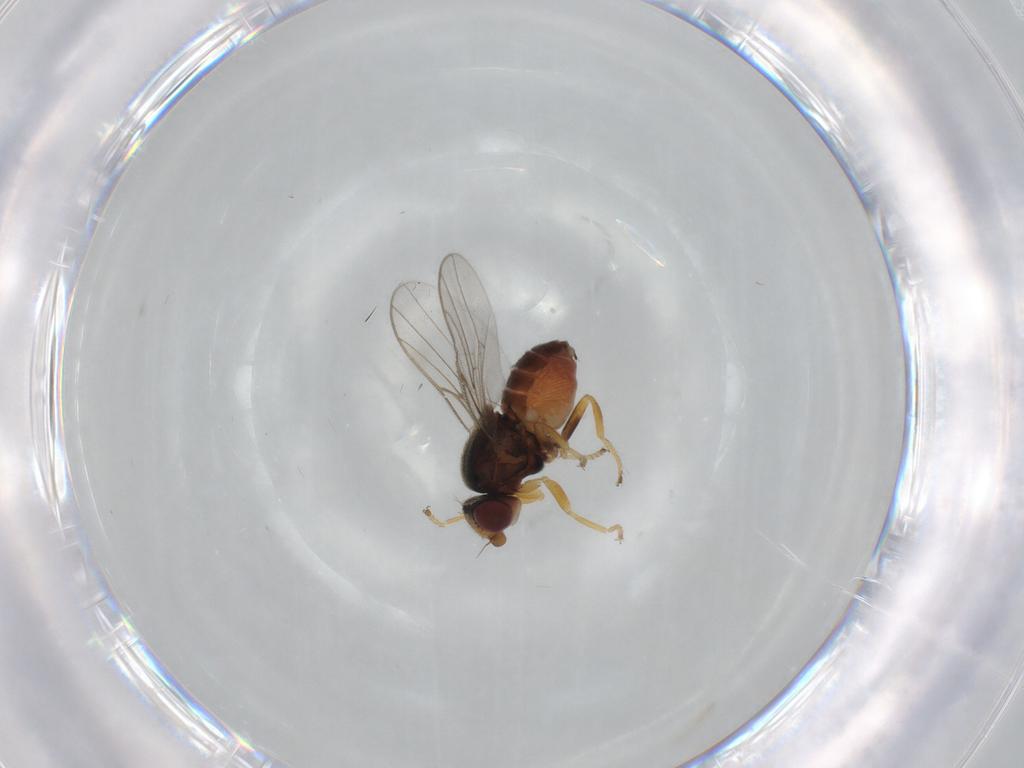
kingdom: Animalia
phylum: Arthropoda
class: Insecta
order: Diptera
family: Chloropidae
